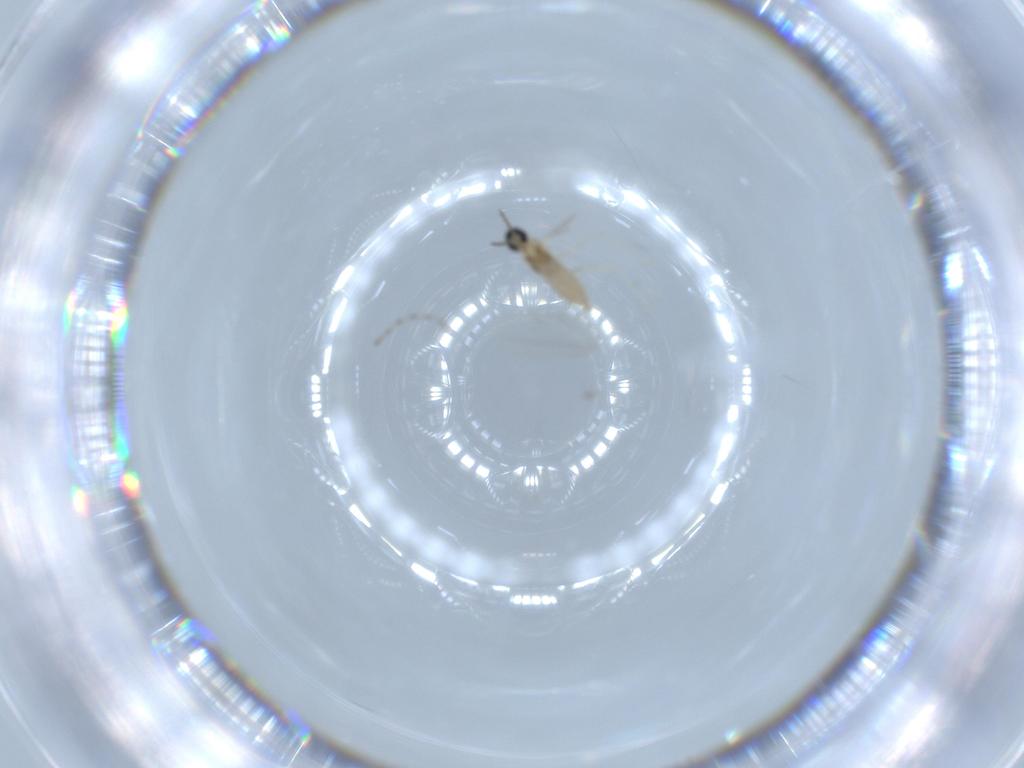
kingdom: Animalia
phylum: Arthropoda
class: Insecta
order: Diptera
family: Cecidomyiidae
